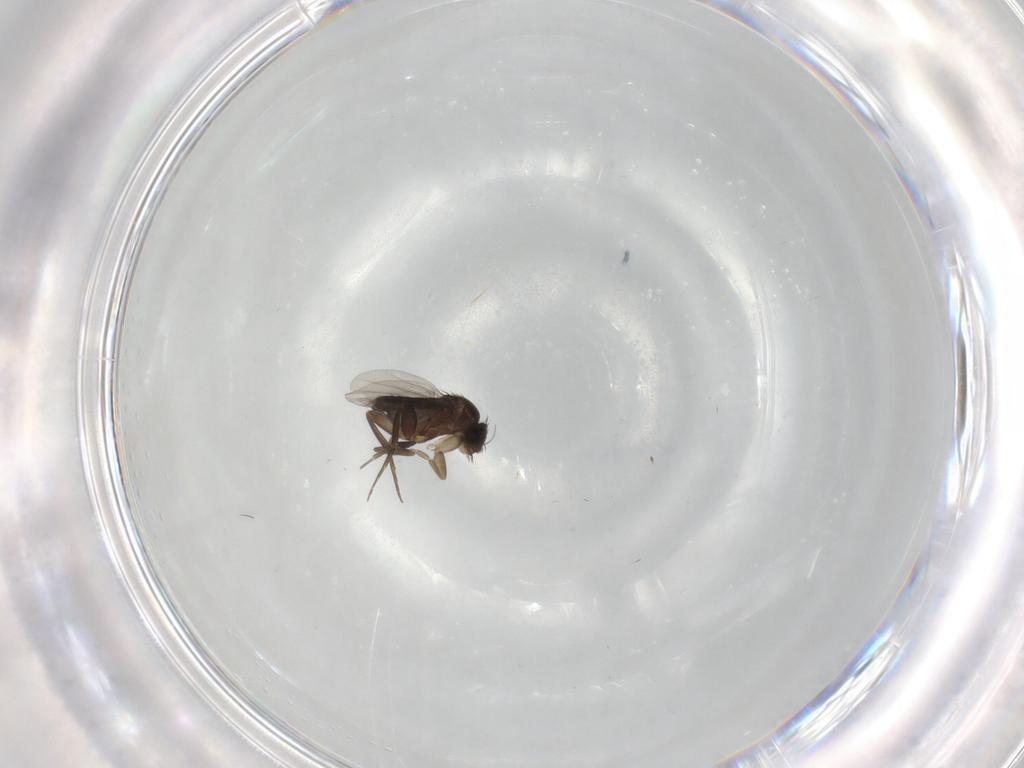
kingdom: Animalia
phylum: Arthropoda
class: Insecta
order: Diptera
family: Phoridae
